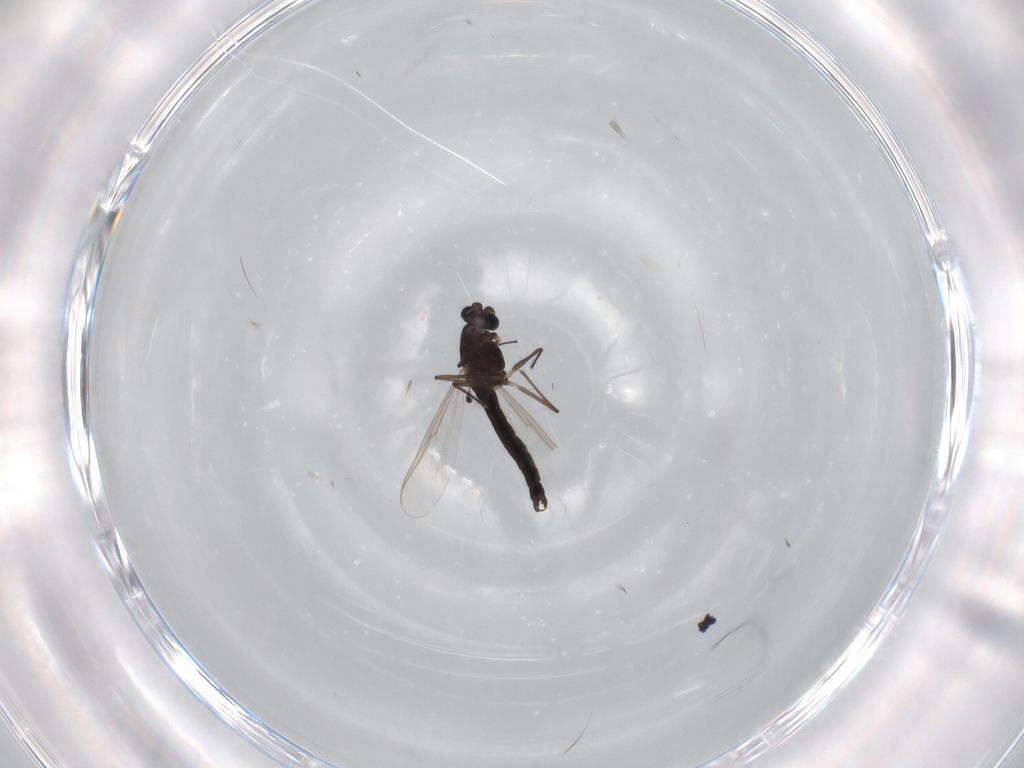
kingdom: Animalia
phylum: Arthropoda
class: Insecta
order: Diptera
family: Limoniidae
